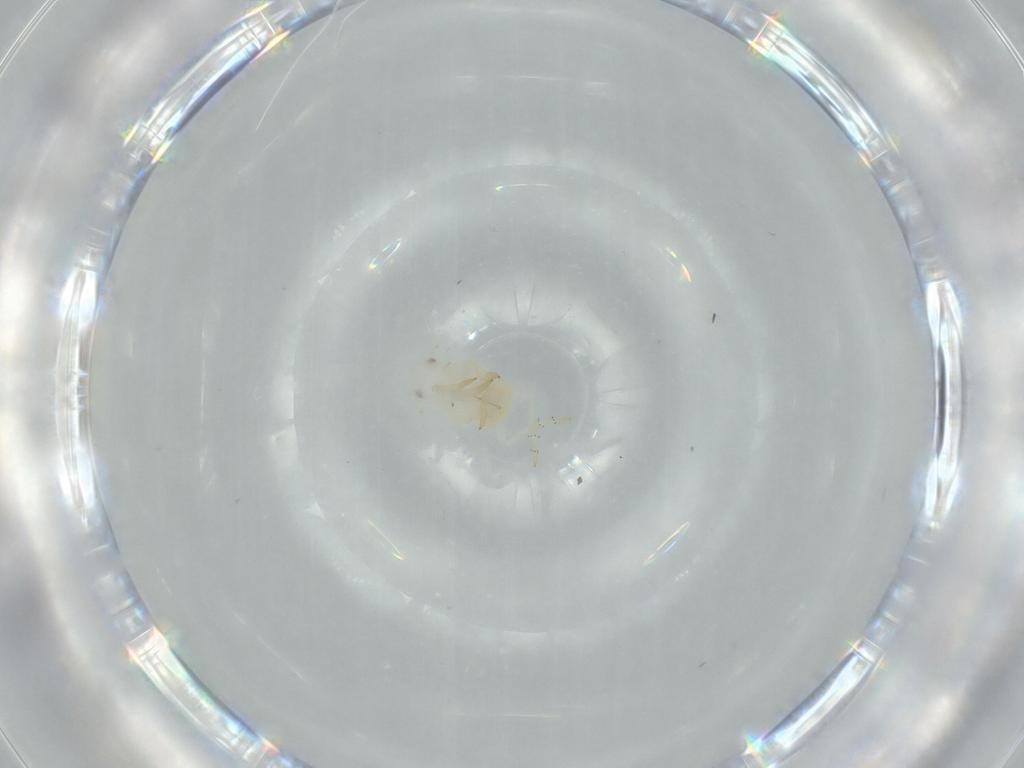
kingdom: Animalia
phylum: Arthropoda
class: Insecta
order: Hemiptera
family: Flatidae
